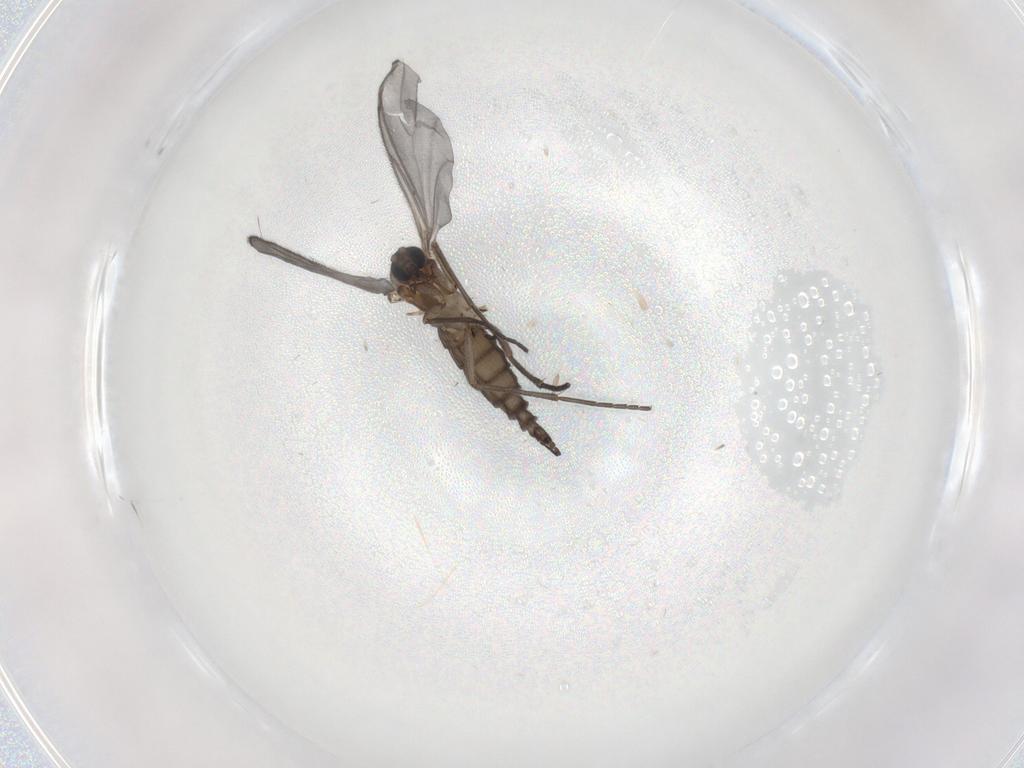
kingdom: Animalia
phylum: Arthropoda
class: Insecta
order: Diptera
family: Sciaridae
